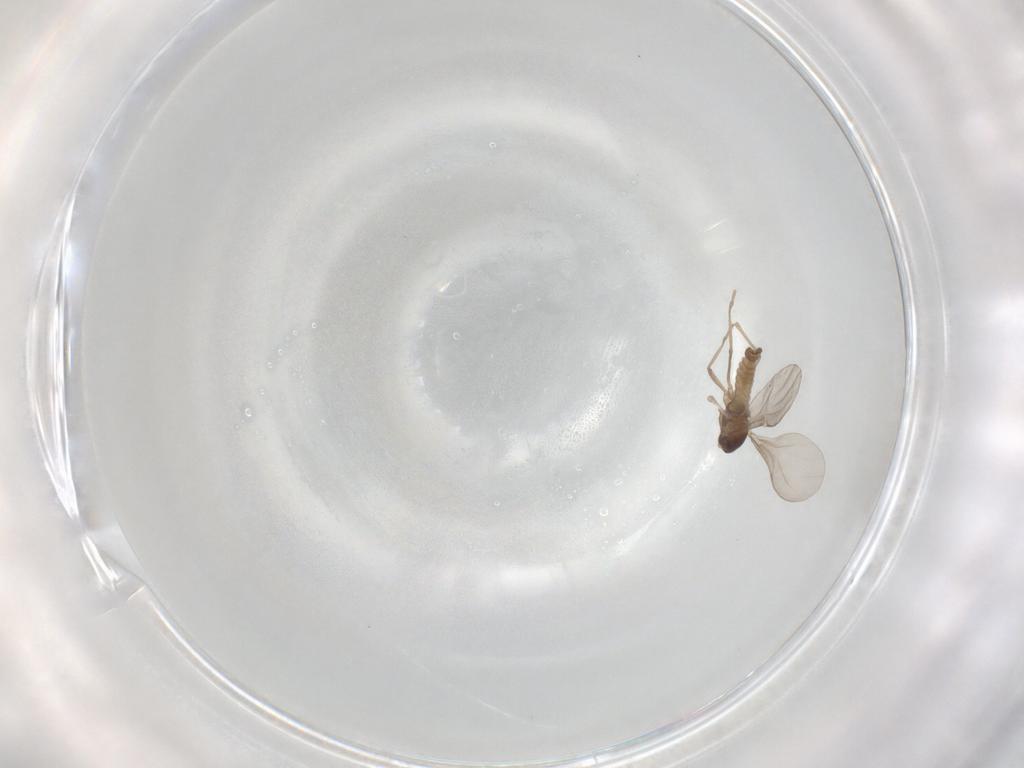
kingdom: Animalia
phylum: Arthropoda
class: Insecta
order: Diptera
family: Cecidomyiidae
